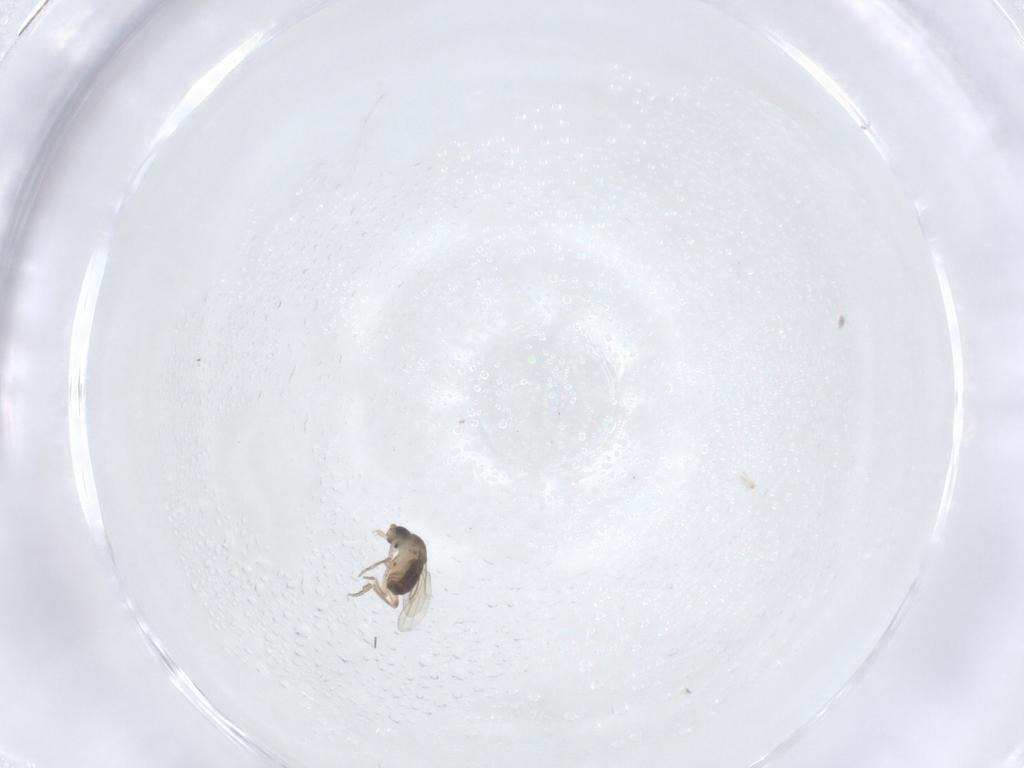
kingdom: Animalia
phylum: Arthropoda
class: Insecta
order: Diptera
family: Phoridae
